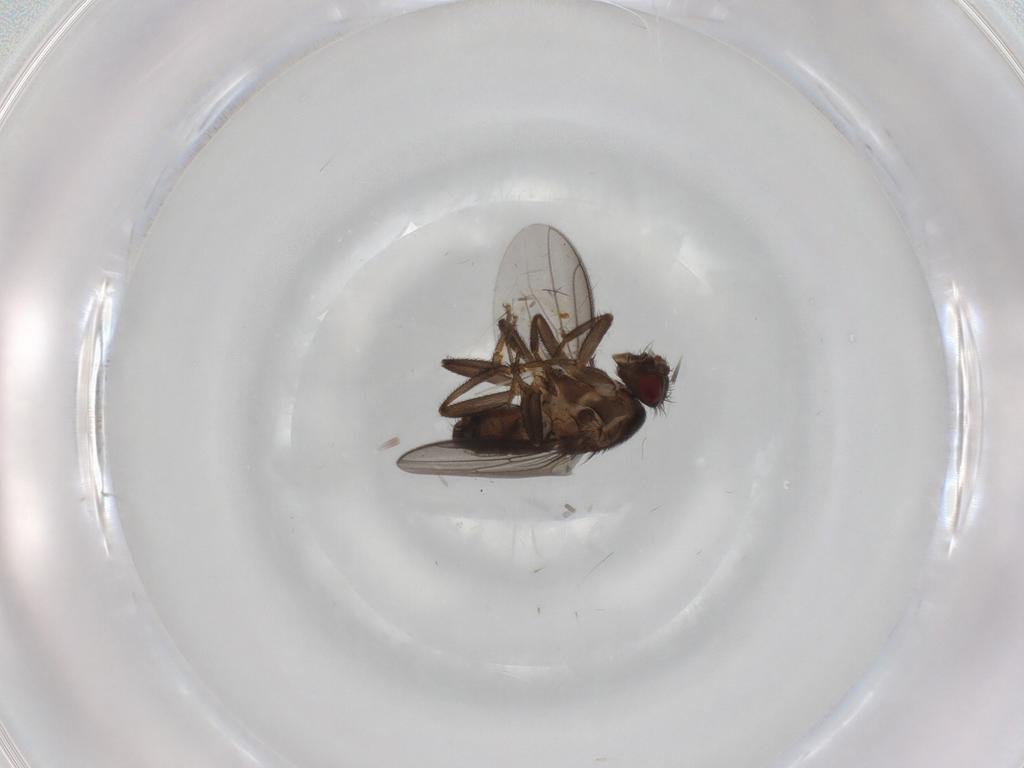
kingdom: Animalia
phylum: Arthropoda
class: Insecta
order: Diptera
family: Sphaeroceridae
